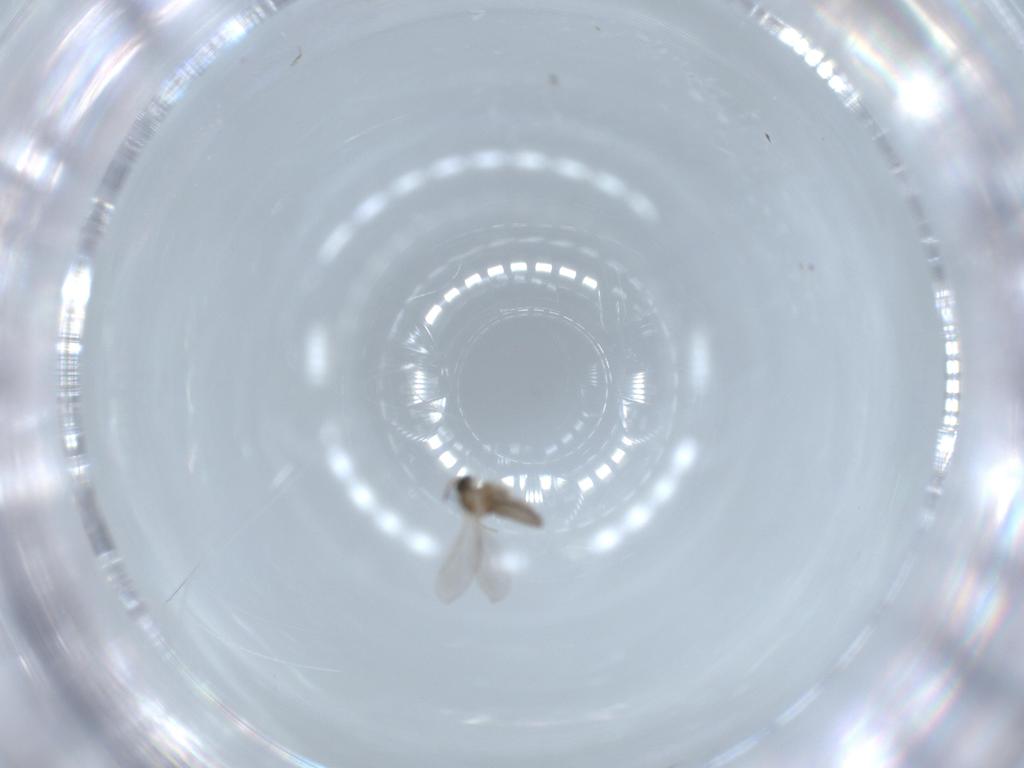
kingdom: Animalia
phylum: Arthropoda
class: Insecta
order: Diptera
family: Cecidomyiidae
